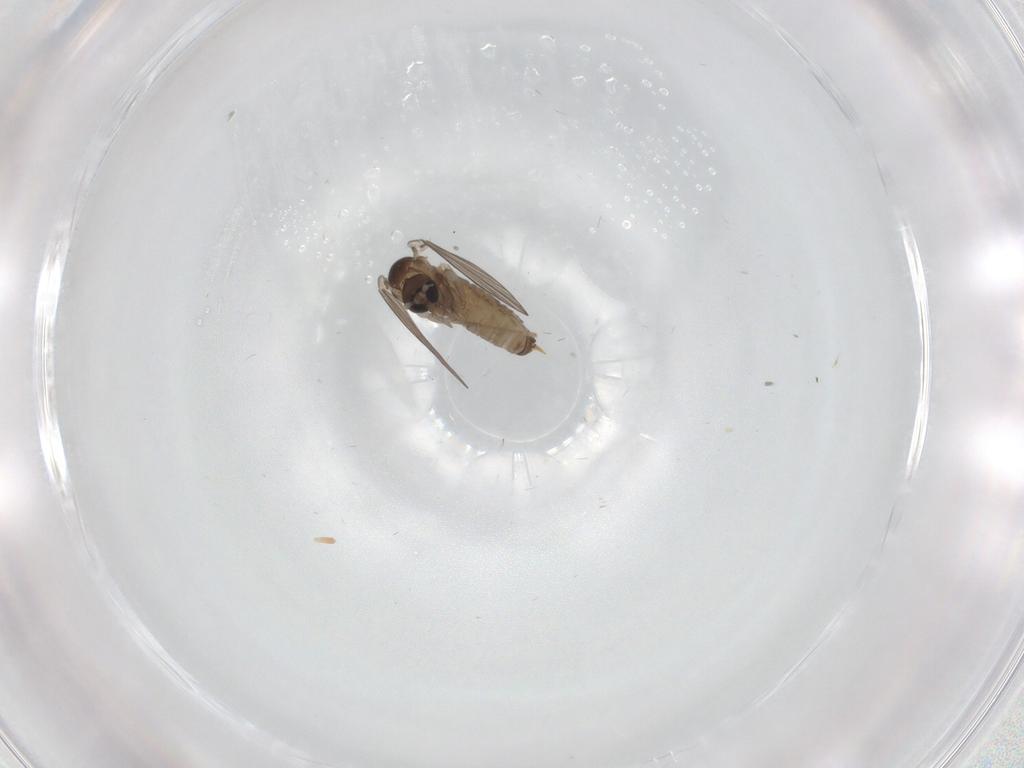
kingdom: Animalia
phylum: Arthropoda
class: Insecta
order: Diptera
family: Psychodidae
